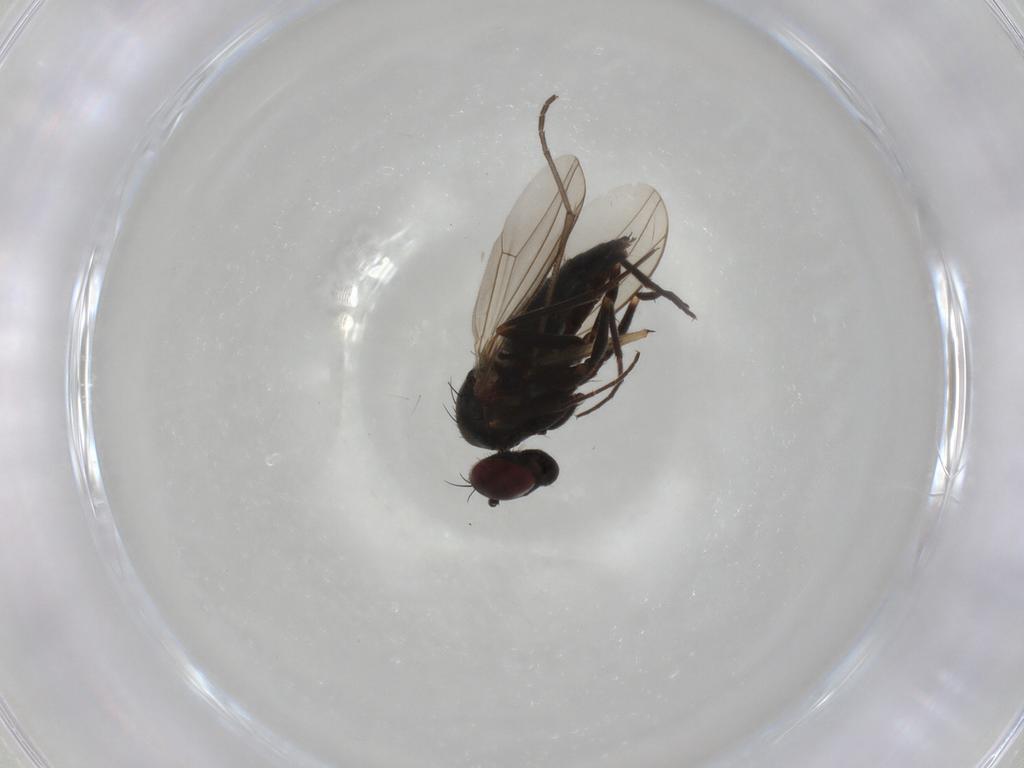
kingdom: Animalia
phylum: Arthropoda
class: Insecta
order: Diptera
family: Dolichopodidae
